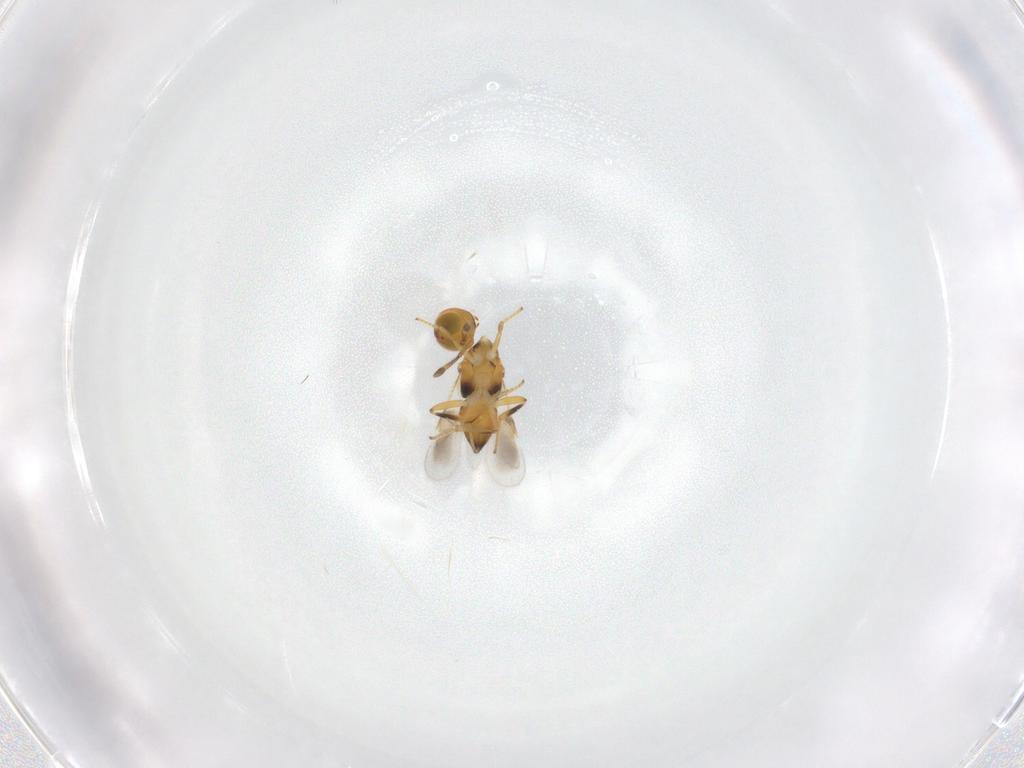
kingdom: Animalia
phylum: Arthropoda
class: Insecta
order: Hymenoptera
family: Encyrtidae
